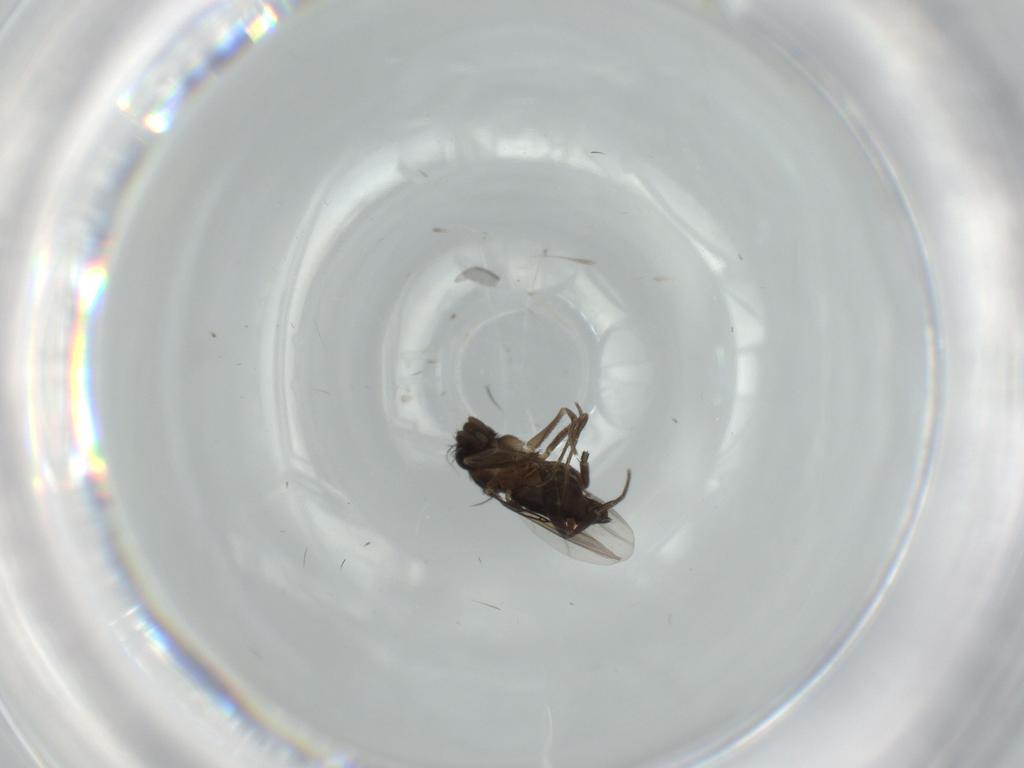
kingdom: Animalia
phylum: Arthropoda
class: Insecta
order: Diptera
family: Phoridae
